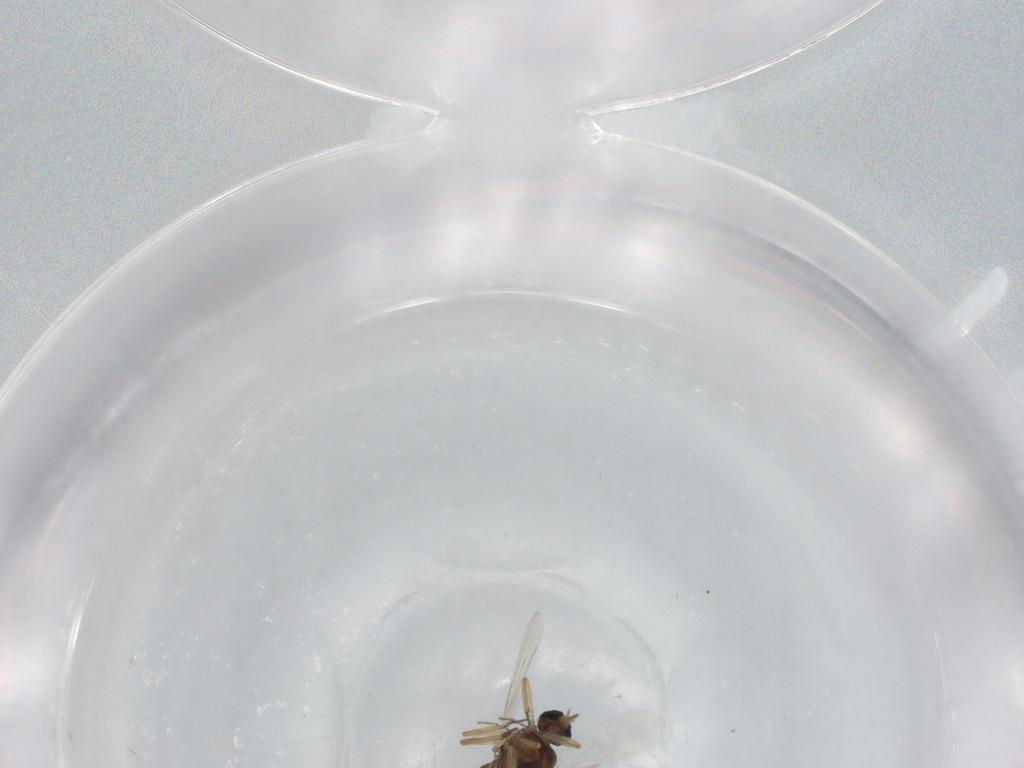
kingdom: Animalia
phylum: Arthropoda
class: Insecta
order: Diptera
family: Ceratopogonidae
